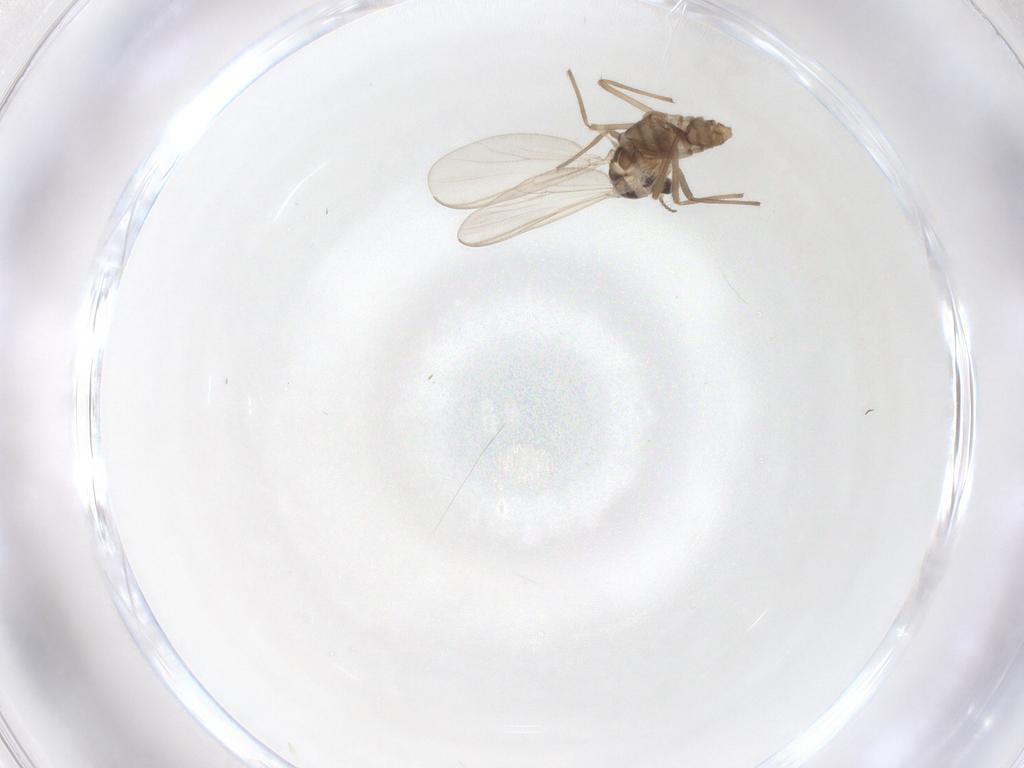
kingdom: Animalia
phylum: Arthropoda
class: Insecta
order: Diptera
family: Chironomidae
